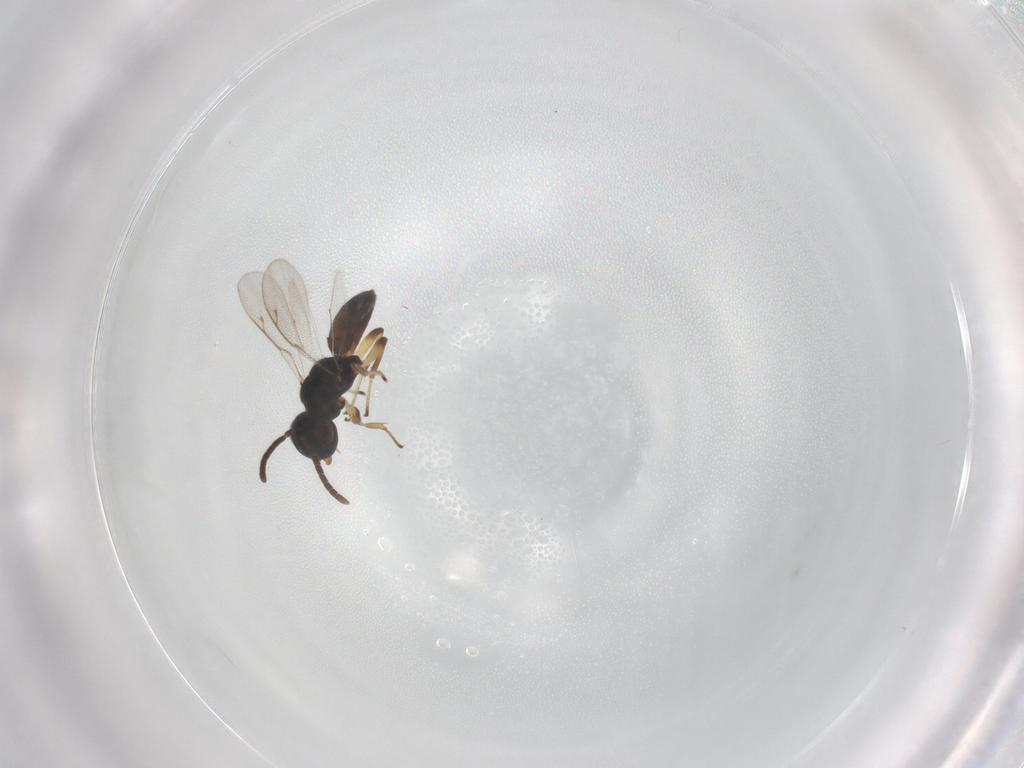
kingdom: Animalia
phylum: Arthropoda
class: Insecta
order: Hymenoptera
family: Eupelmidae
